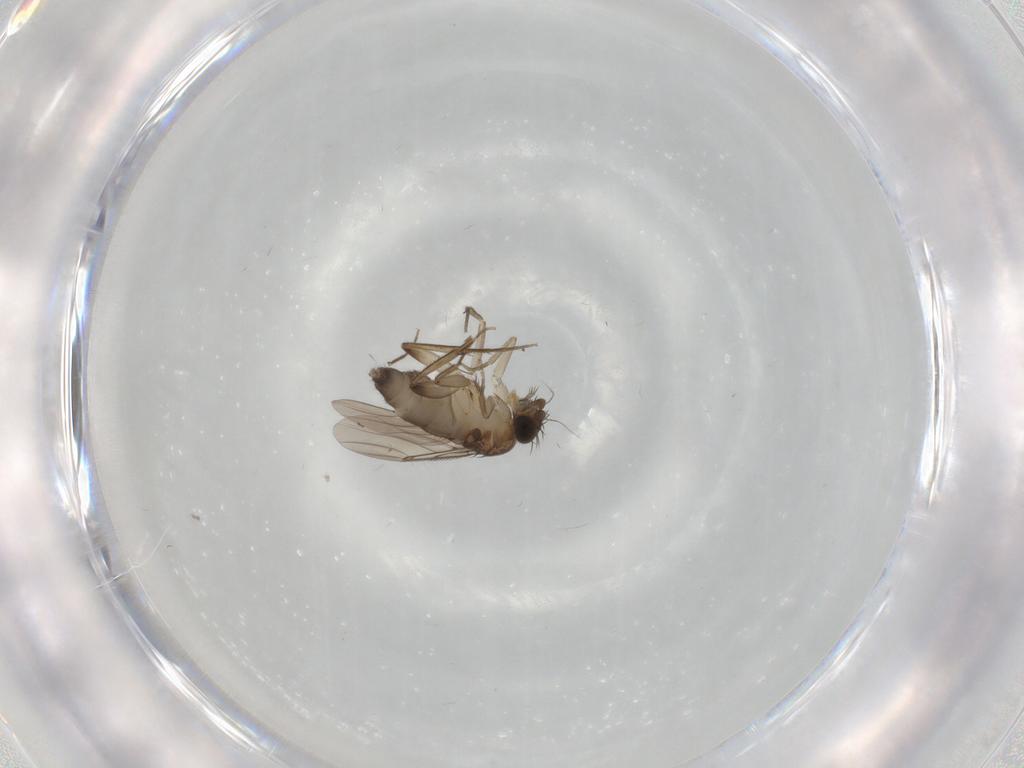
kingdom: Animalia
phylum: Arthropoda
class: Insecta
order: Diptera
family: Phoridae
